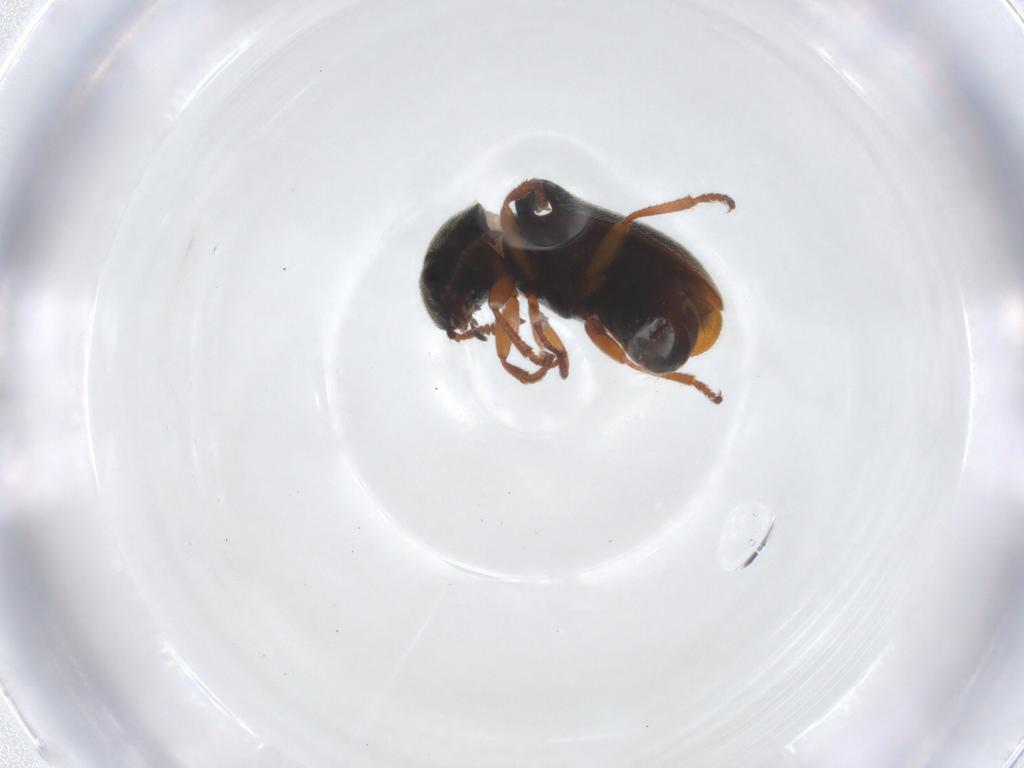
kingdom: Animalia
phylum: Arthropoda
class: Insecta
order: Coleoptera
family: Melyridae
